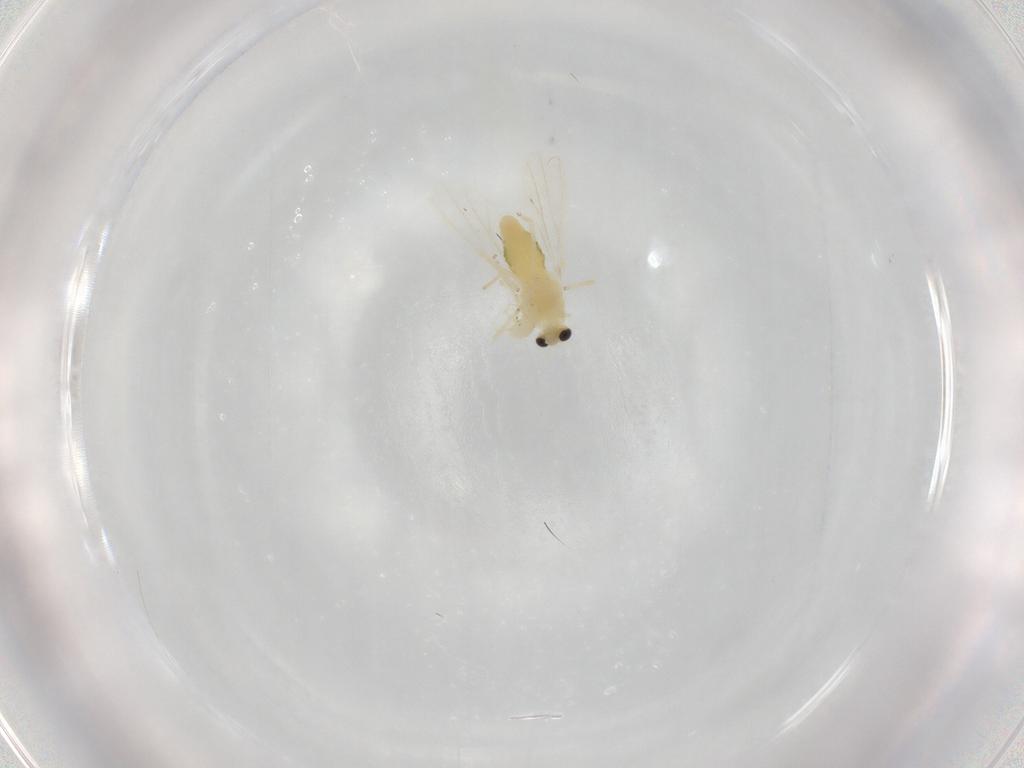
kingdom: Animalia
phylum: Arthropoda
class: Insecta
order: Diptera
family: Chironomidae
